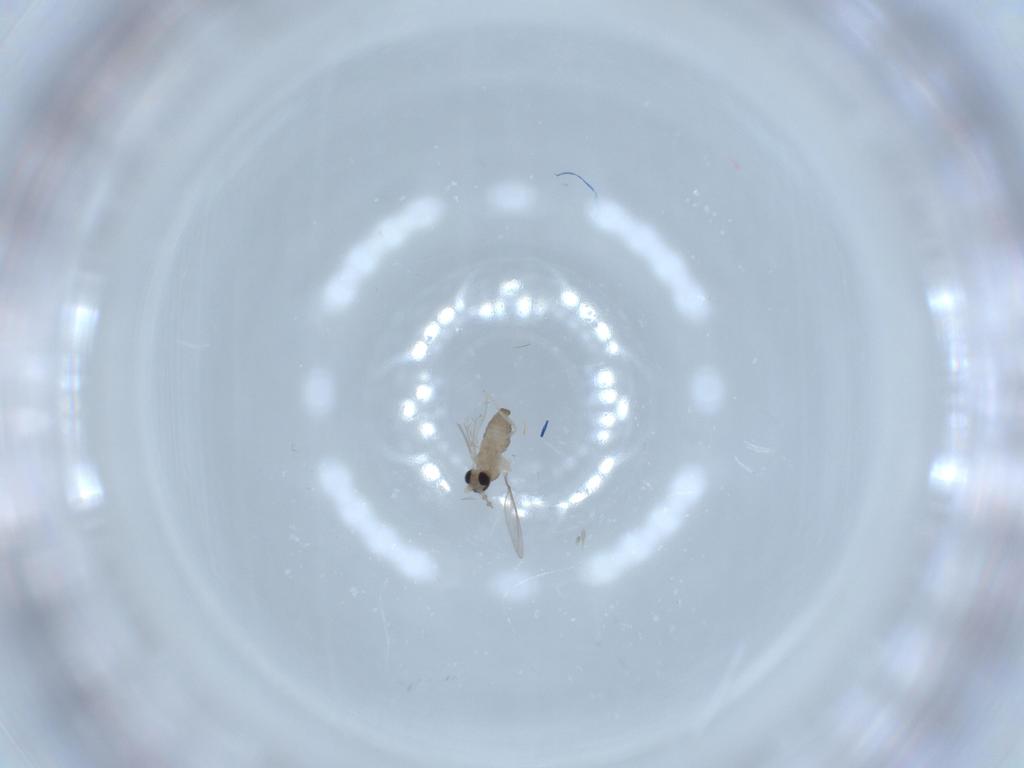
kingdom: Animalia
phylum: Arthropoda
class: Insecta
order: Diptera
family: Cecidomyiidae
